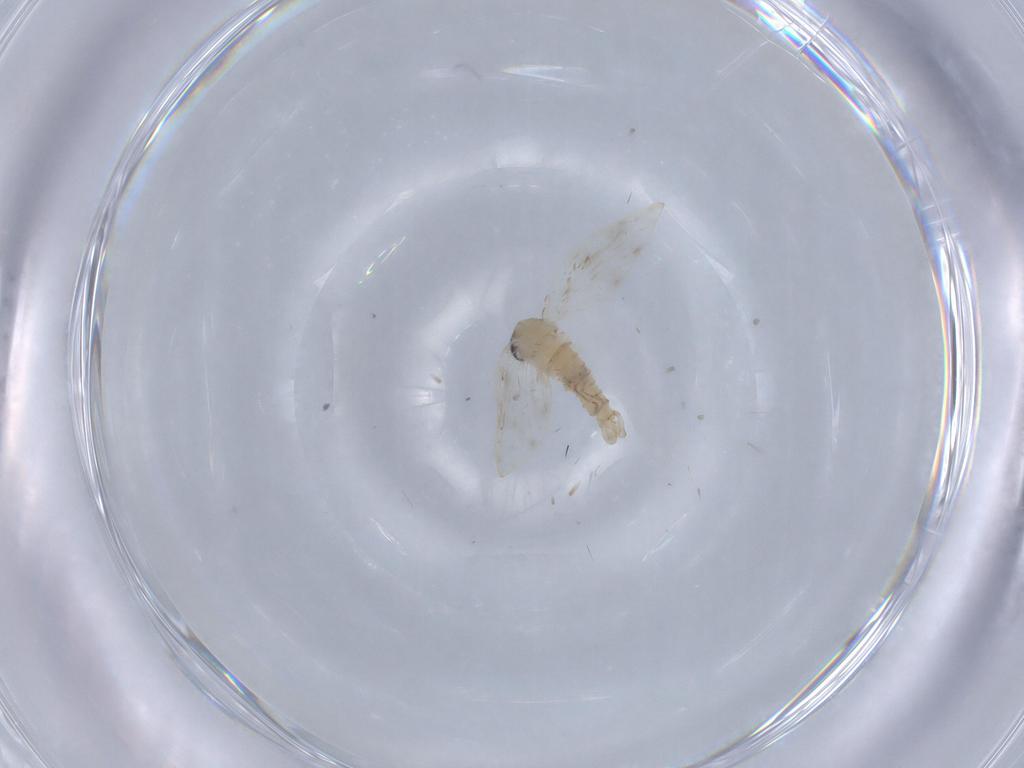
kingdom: Animalia
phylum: Arthropoda
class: Insecta
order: Diptera
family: Psychodidae
